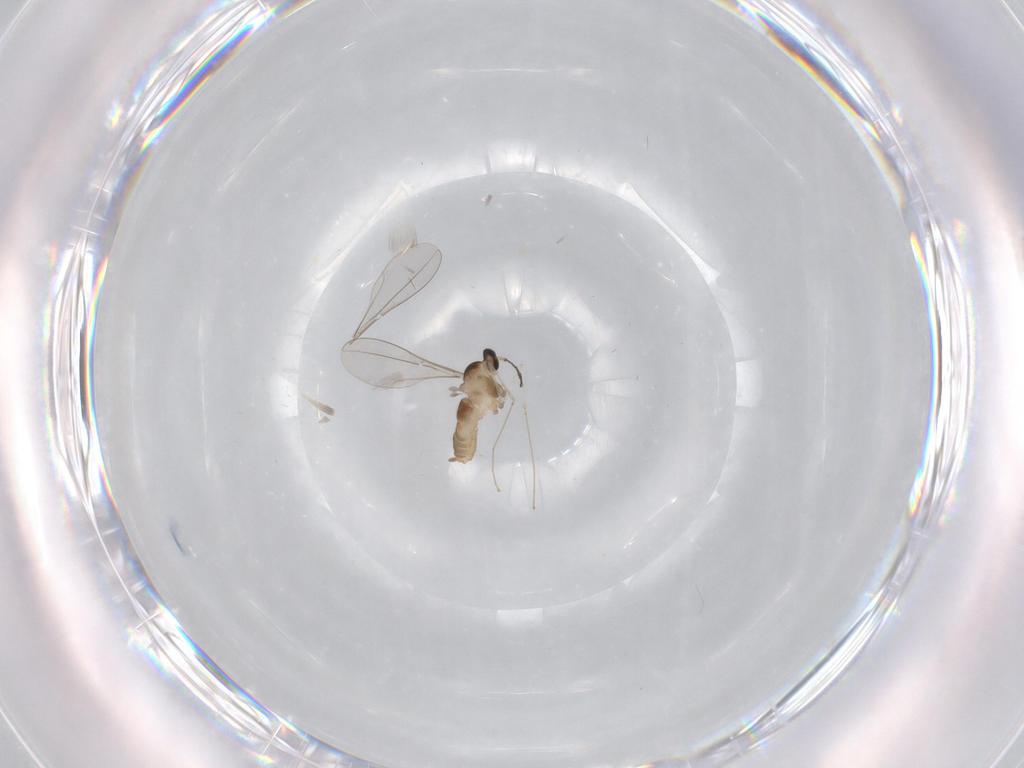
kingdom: Animalia
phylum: Arthropoda
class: Insecta
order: Diptera
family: Cecidomyiidae
